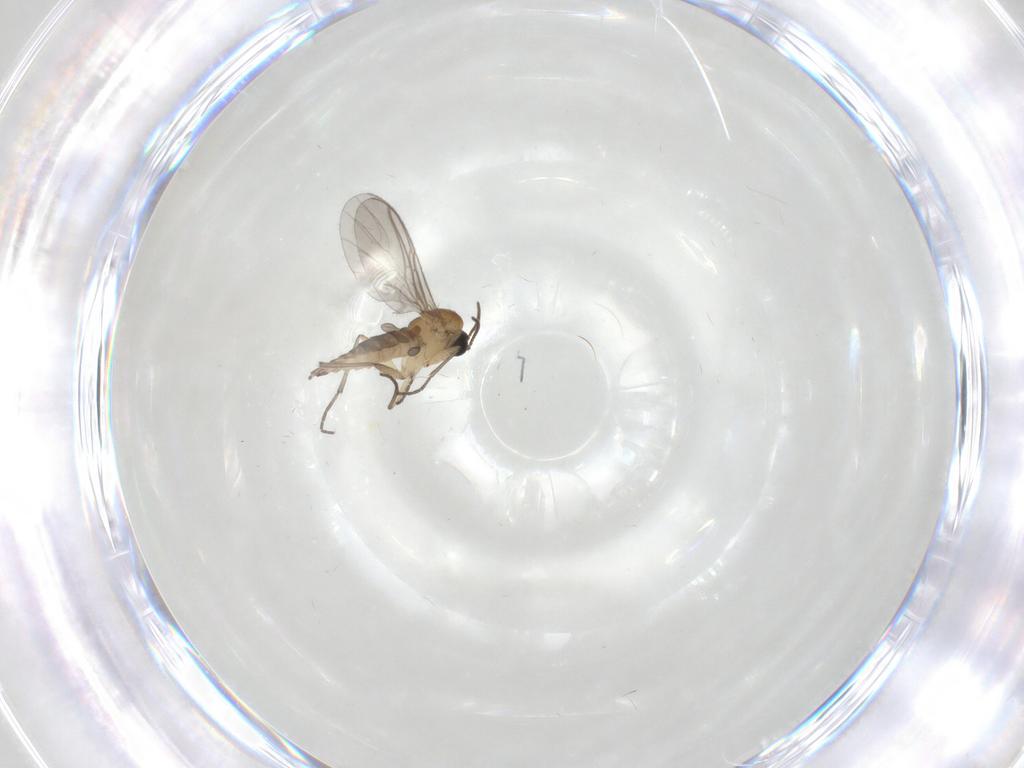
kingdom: Animalia
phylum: Arthropoda
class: Insecta
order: Diptera
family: Sciaridae
